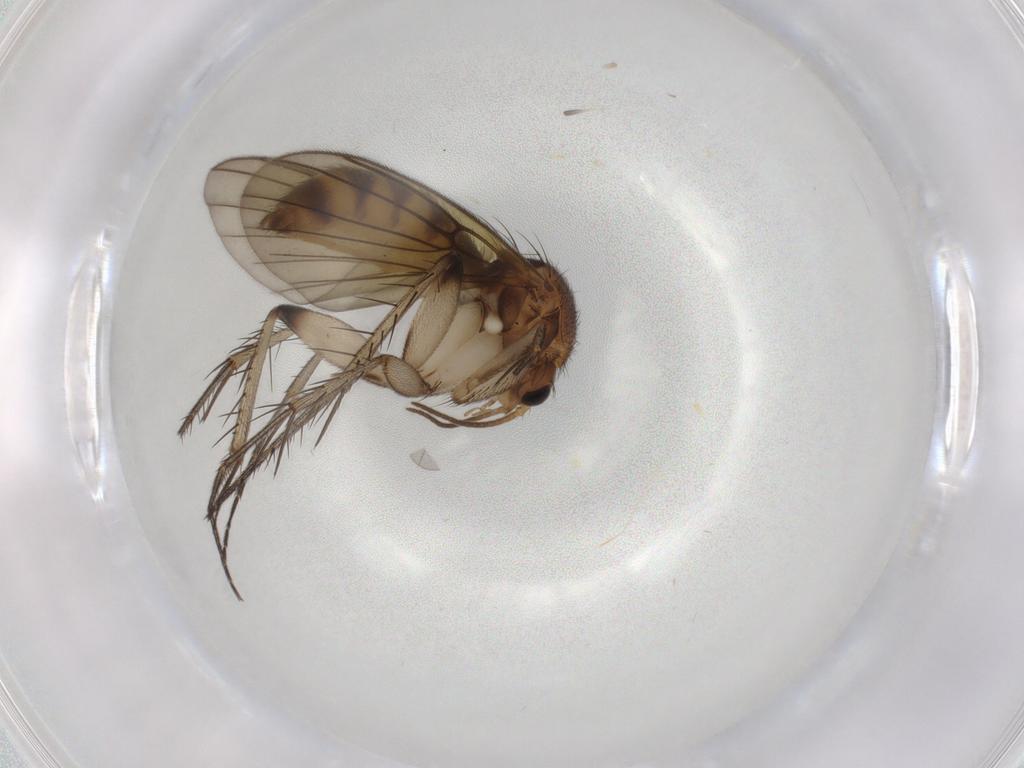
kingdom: Animalia
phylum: Arthropoda
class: Insecta
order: Diptera
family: Mycetophilidae
